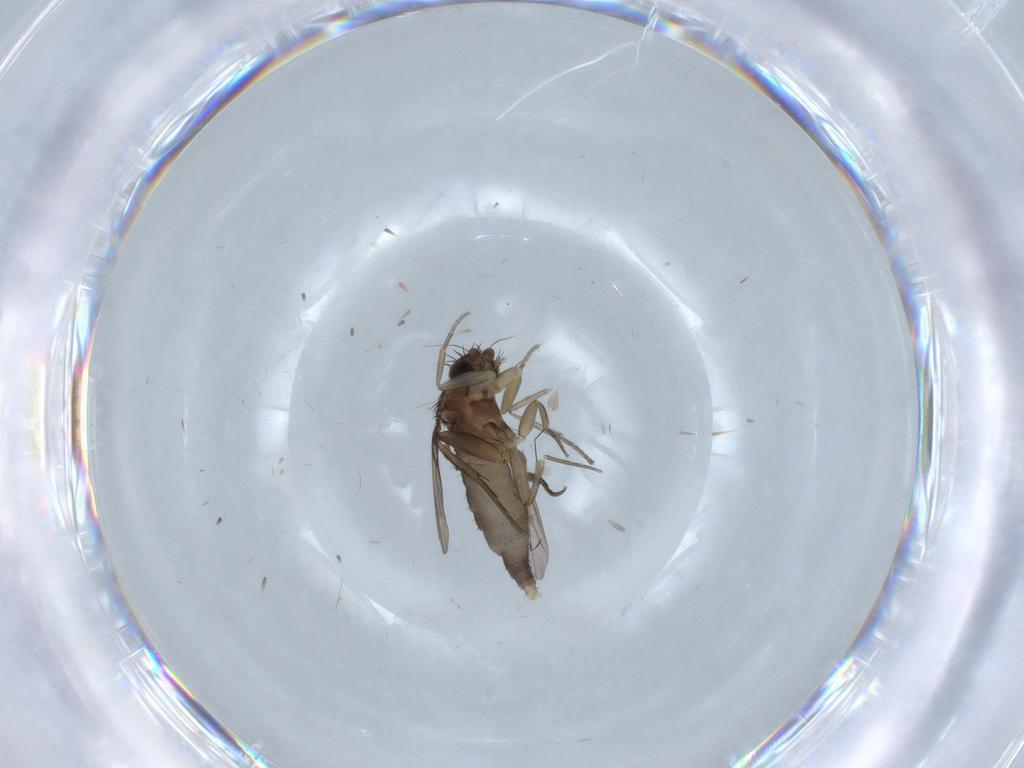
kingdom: Animalia
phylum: Arthropoda
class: Insecta
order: Diptera
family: Phoridae
